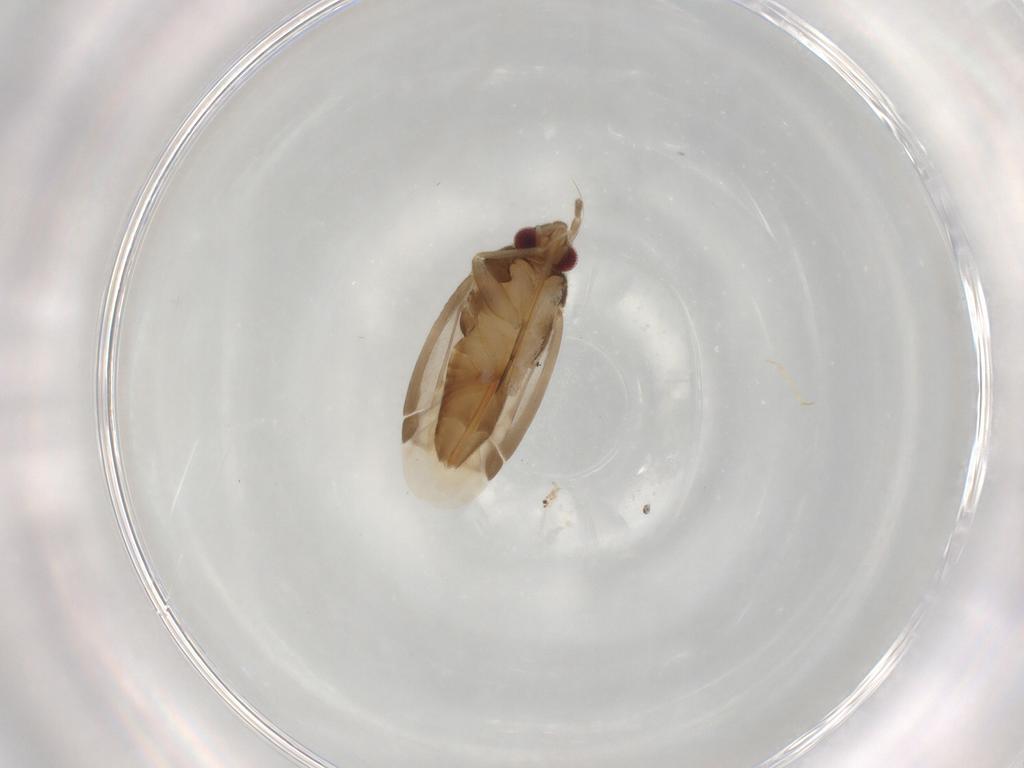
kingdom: Animalia
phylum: Arthropoda
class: Insecta
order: Hemiptera
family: Miridae
